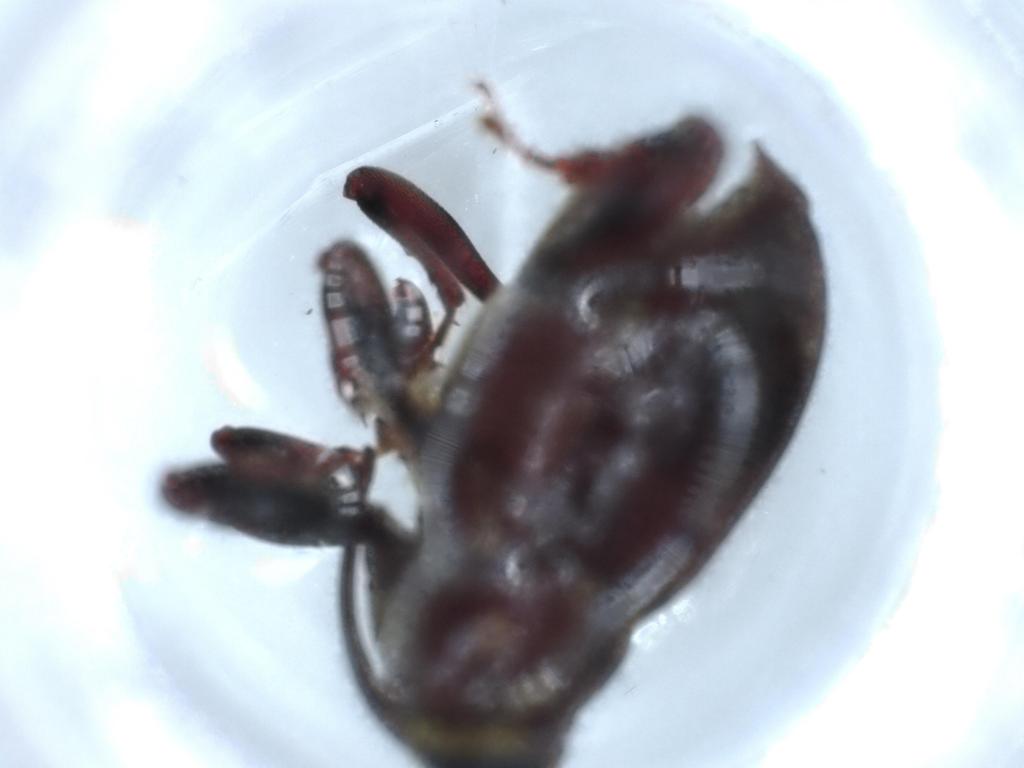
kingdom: Animalia
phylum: Arthropoda
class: Insecta
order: Coleoptera
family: Curculionidae
